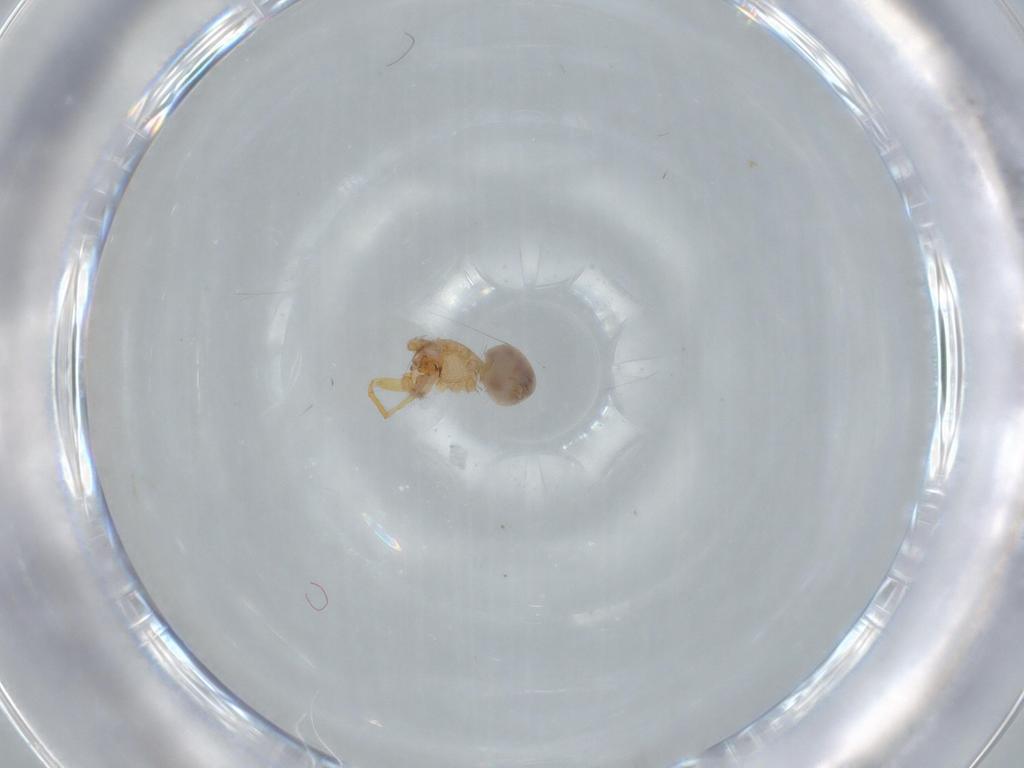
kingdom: Animalia
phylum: Arthropoda
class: Arachnida
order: Araneae
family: Oonopidae
